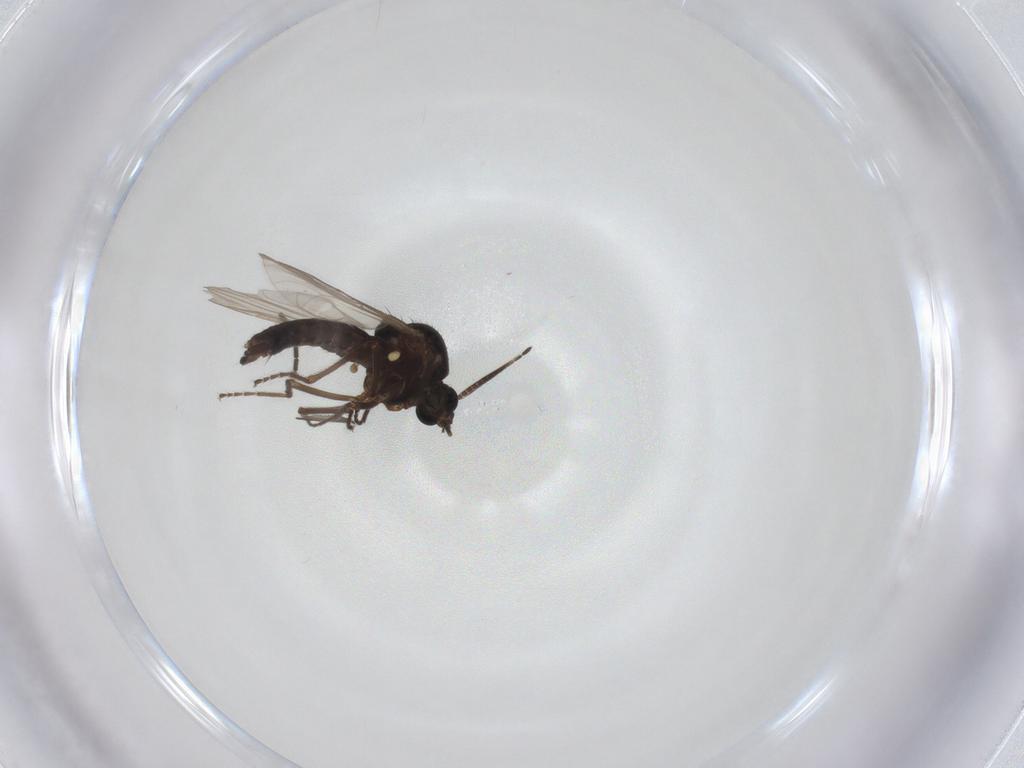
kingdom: Animalia
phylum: Arthropoda
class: Insecta
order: Diptera
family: Ceratopogonidae
